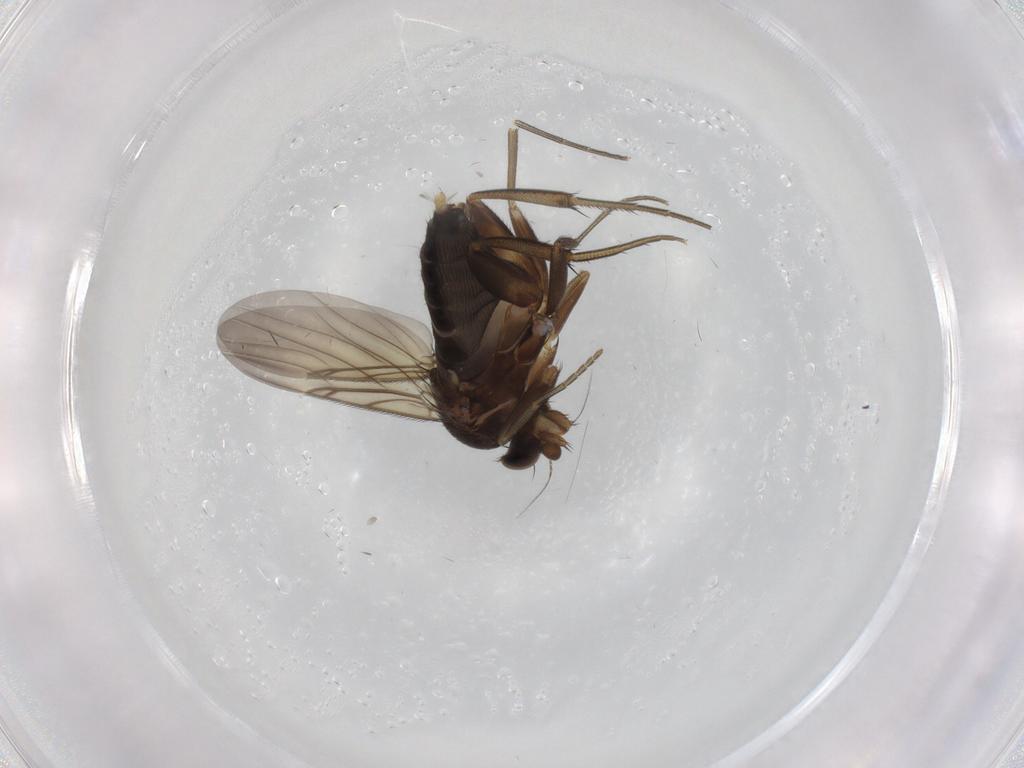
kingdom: Animalia
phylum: Arthropoda
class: Insecta
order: Diptera
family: Phoridae
